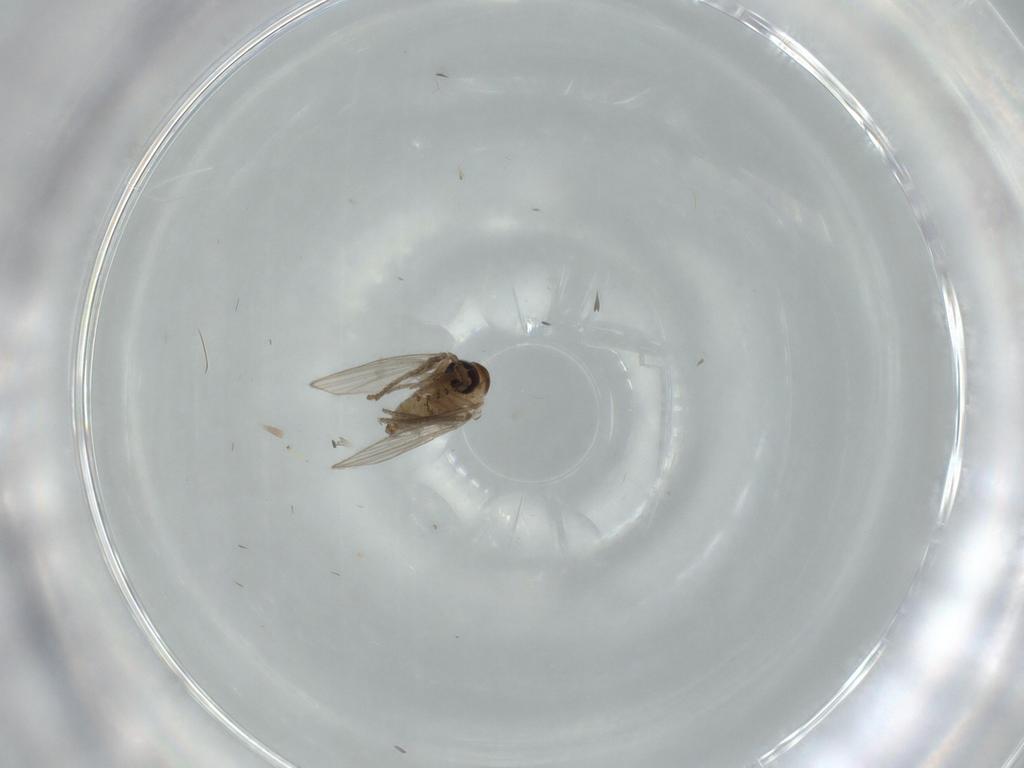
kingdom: Animalia
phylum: Arthropoda
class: Insecta
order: Diptera
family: Psychodidae
